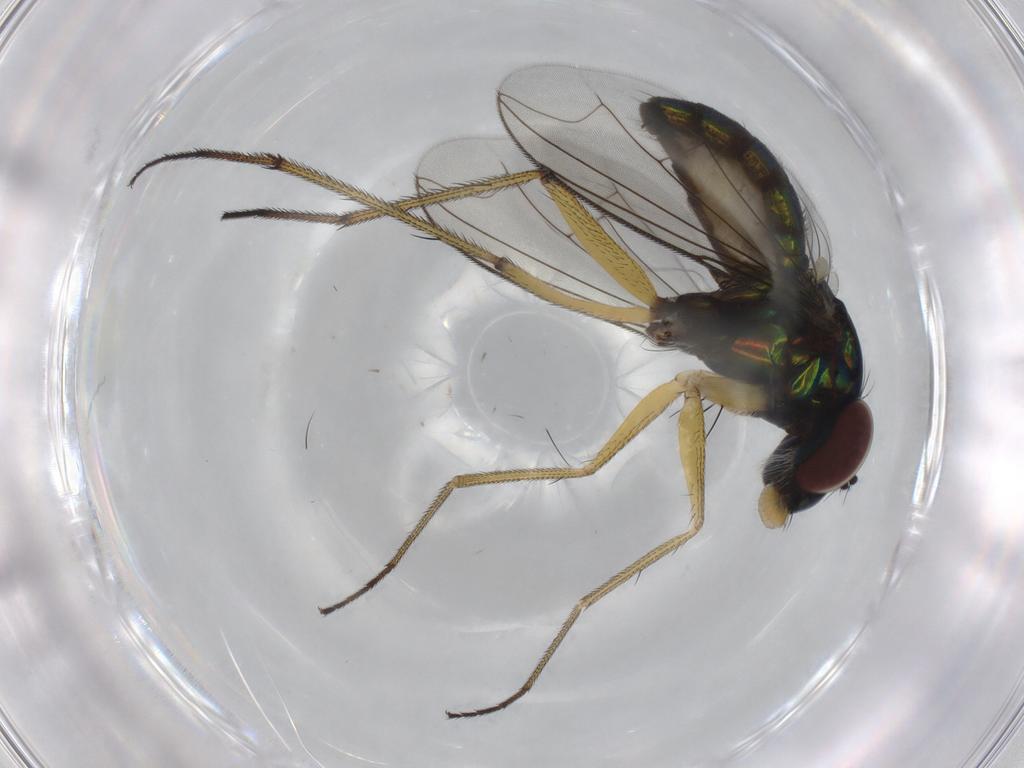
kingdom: Animalia
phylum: Arthropoda
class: Insecta
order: Diptera
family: Dolichopodidae
